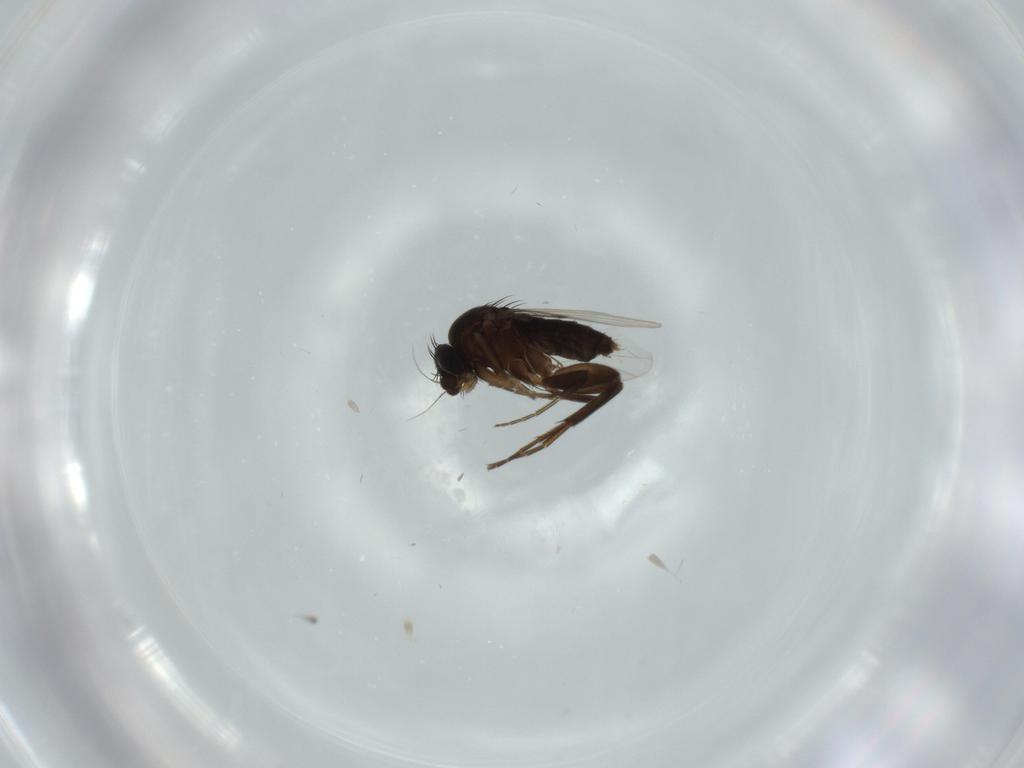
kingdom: Animalia
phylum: Arthropoda
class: Insecta
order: Diptera
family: Phoridae
